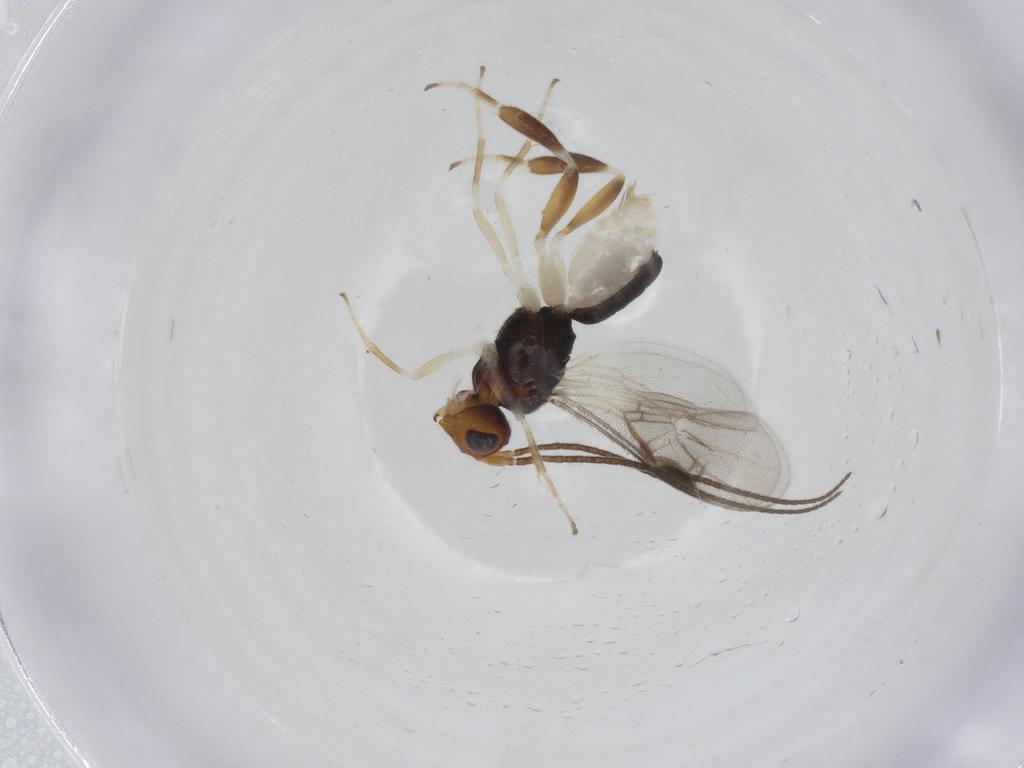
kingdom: Animalia
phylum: Arthropoda
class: Insecta
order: Hymenoptera
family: Braconidae
